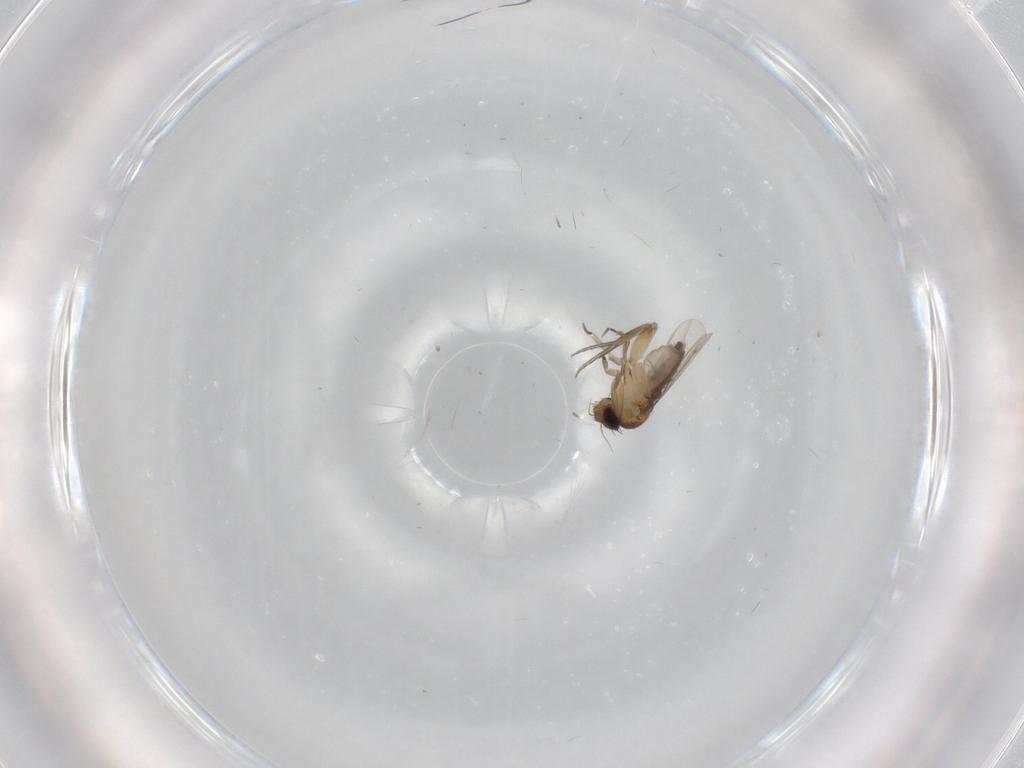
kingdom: Animalia
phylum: Arthropoda
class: Insecta
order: Diptera
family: Phoridae
